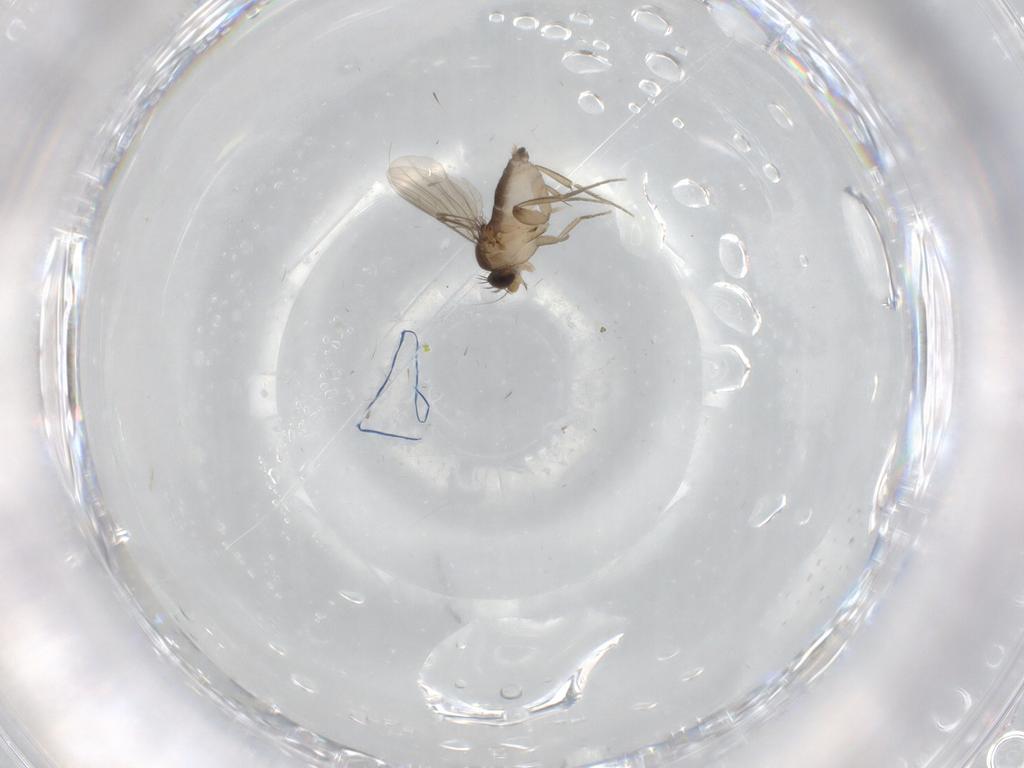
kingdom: Animalia
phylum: Arthropoda
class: Insecta
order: Diptera
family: Phoridae
